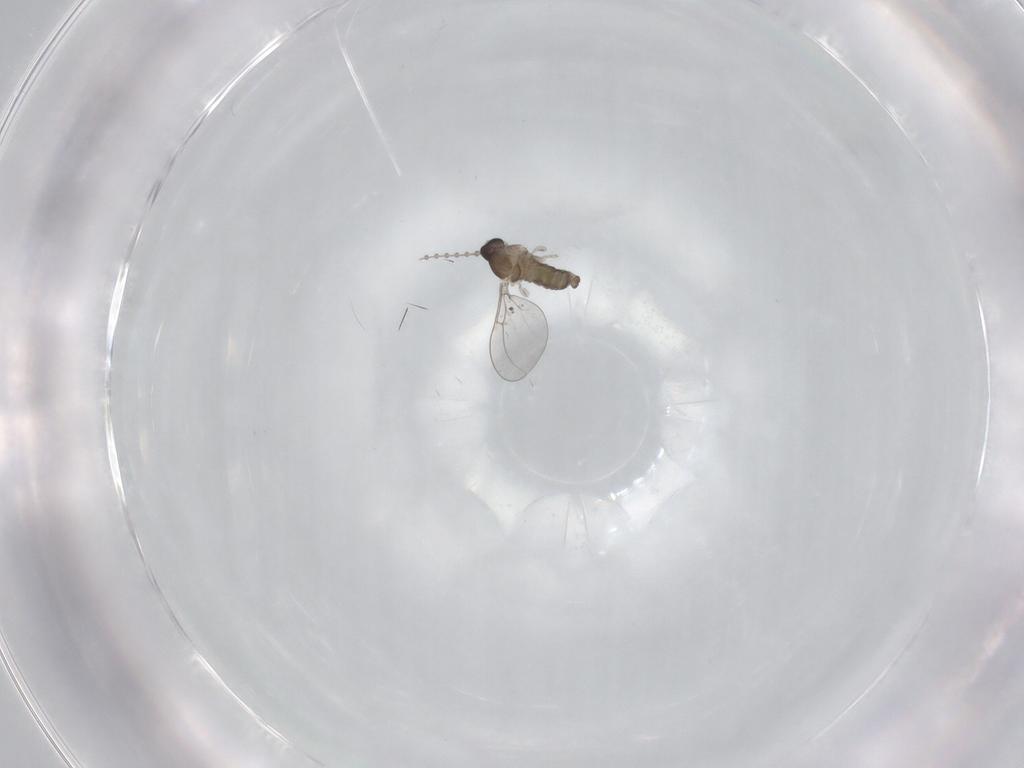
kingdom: Animalia
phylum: Arthropoda
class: Insecta
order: Diptera
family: Cecidomyiidae
